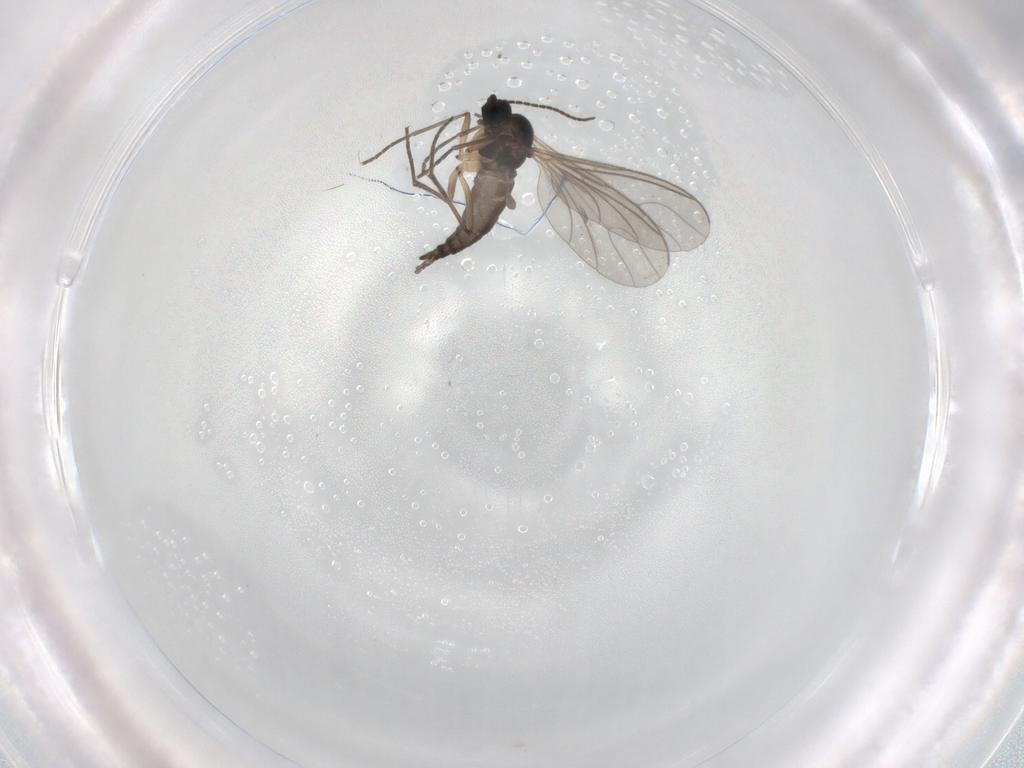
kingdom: Animalia
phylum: Arthropoda
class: Insecta
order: Diptera
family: Sciaridae
